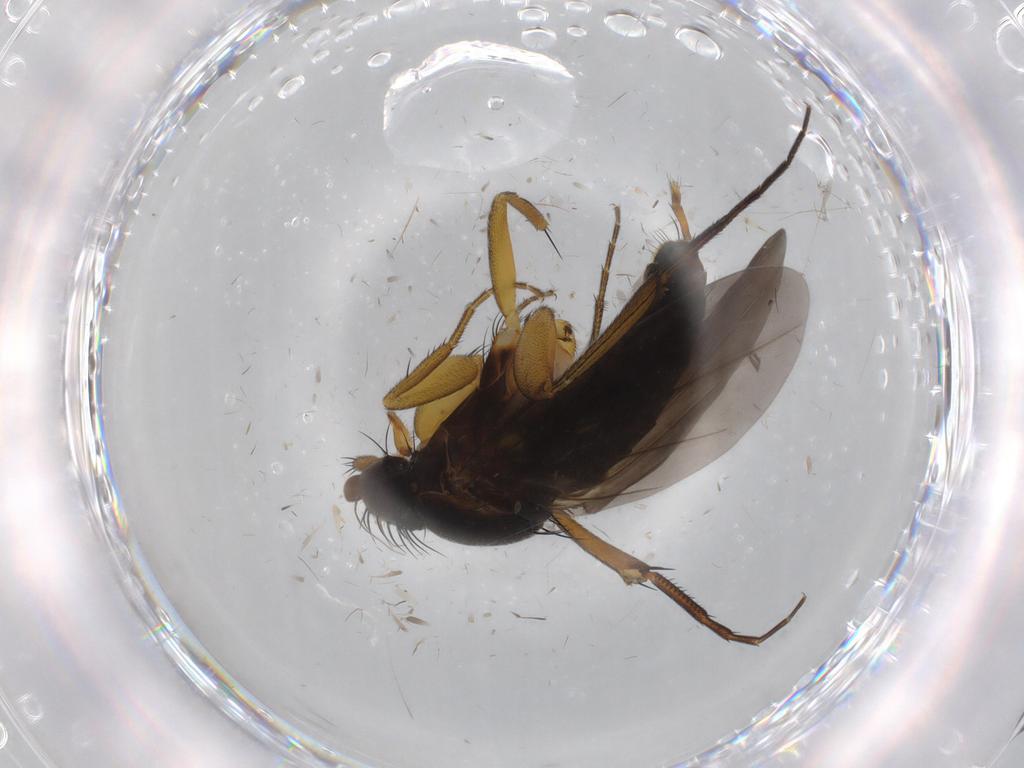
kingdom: Animalia
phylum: Arthropoda
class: Insecta
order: Diptera
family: Phoridae
